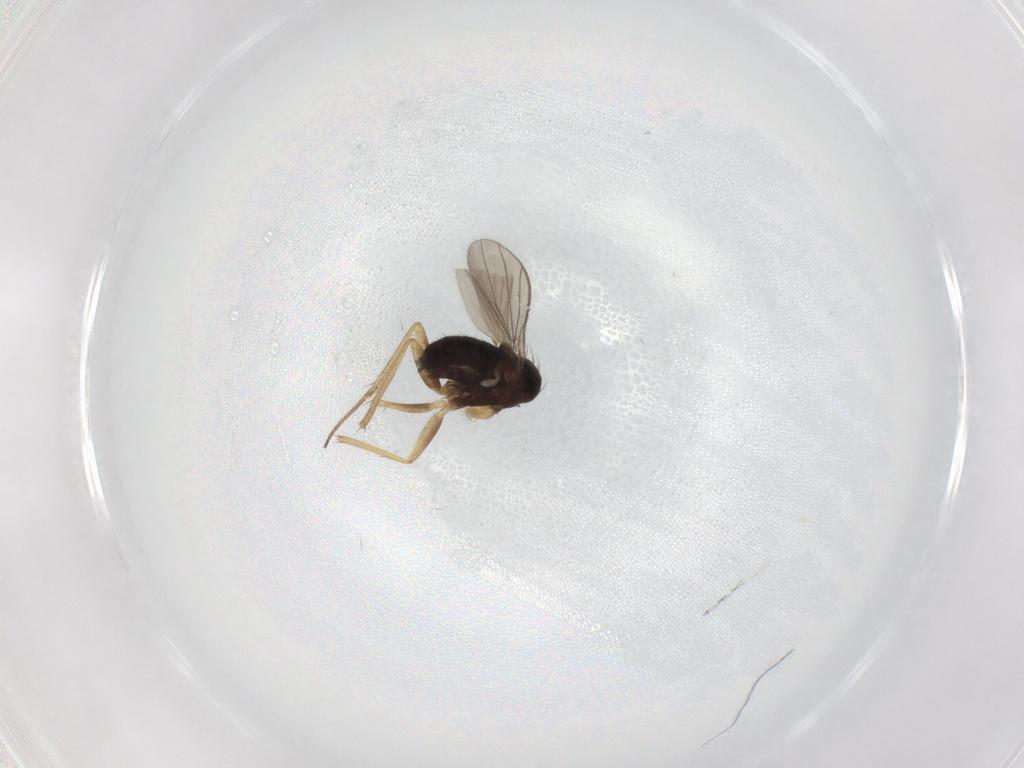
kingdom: Animalia
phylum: Arthropoda
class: Insecta
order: Diptera
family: Dolichopodidae
